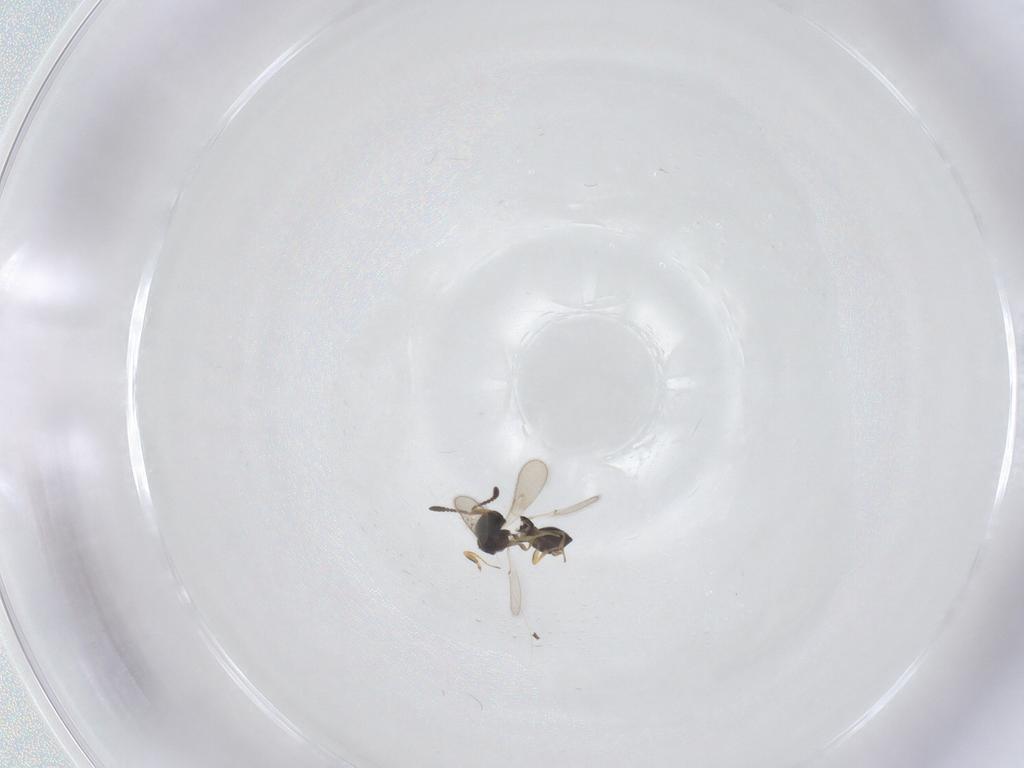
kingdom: Animalia
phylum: Arthropoda
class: Insecta
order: Hymenoptera
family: Scelionidae
